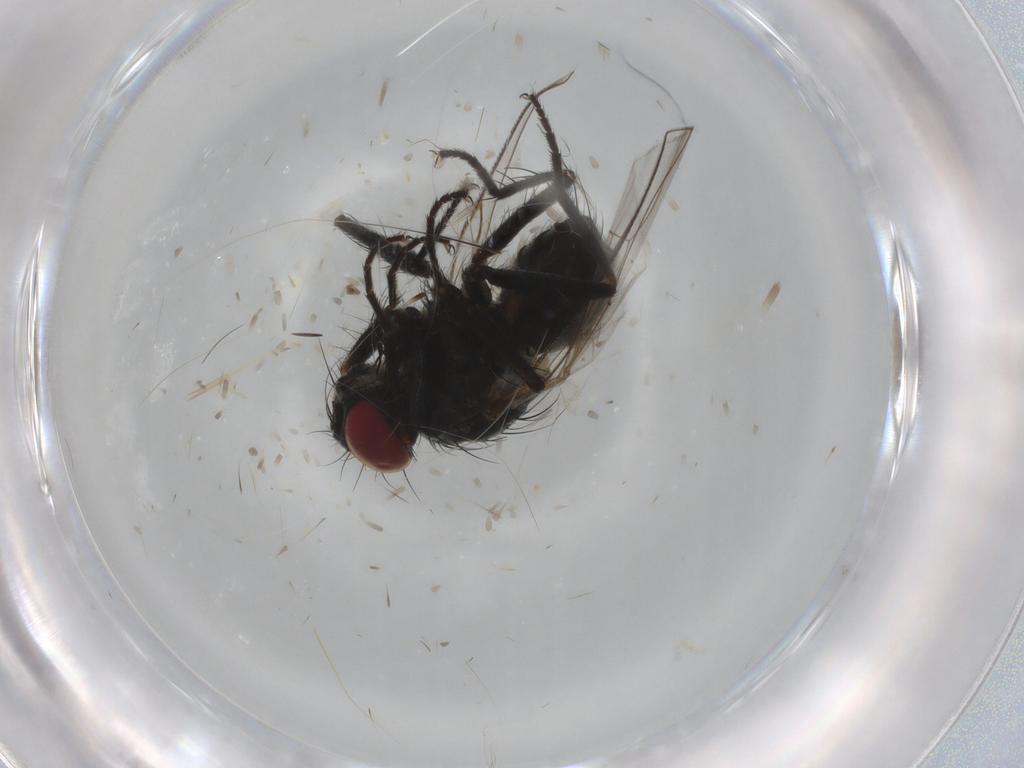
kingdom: Animalia
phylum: Arthropoda
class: Insecta
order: Diptera
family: Muscidae
